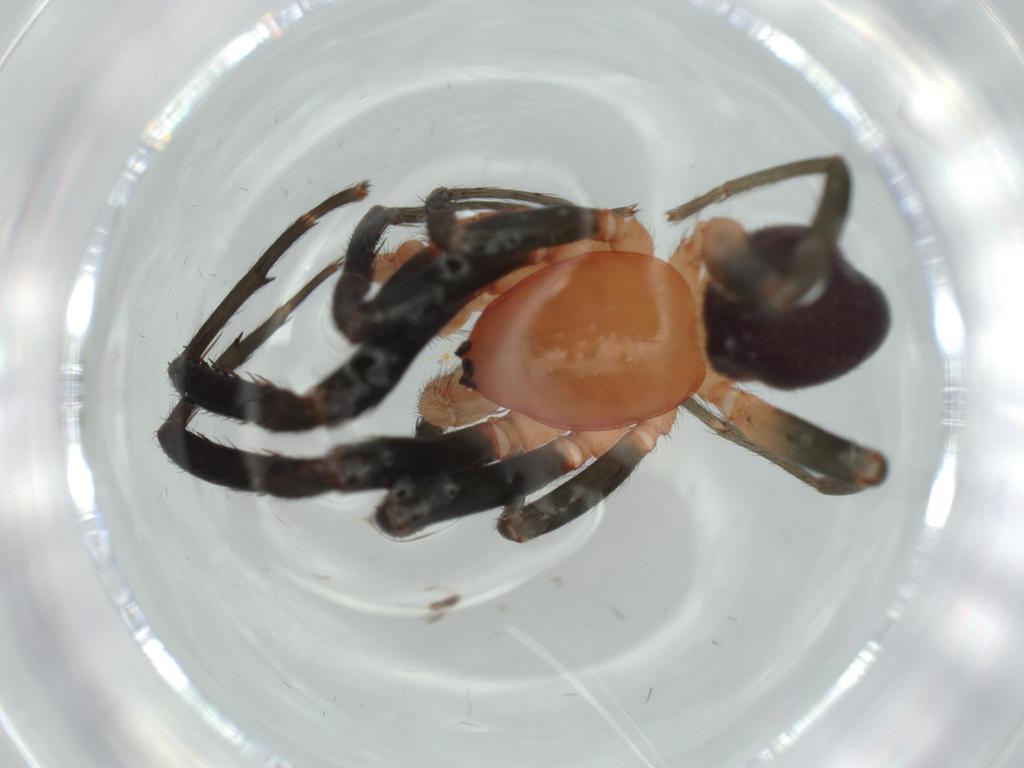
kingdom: Animalia
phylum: Arthropoda
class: Arachnida
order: Araneae
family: Segestriidae
